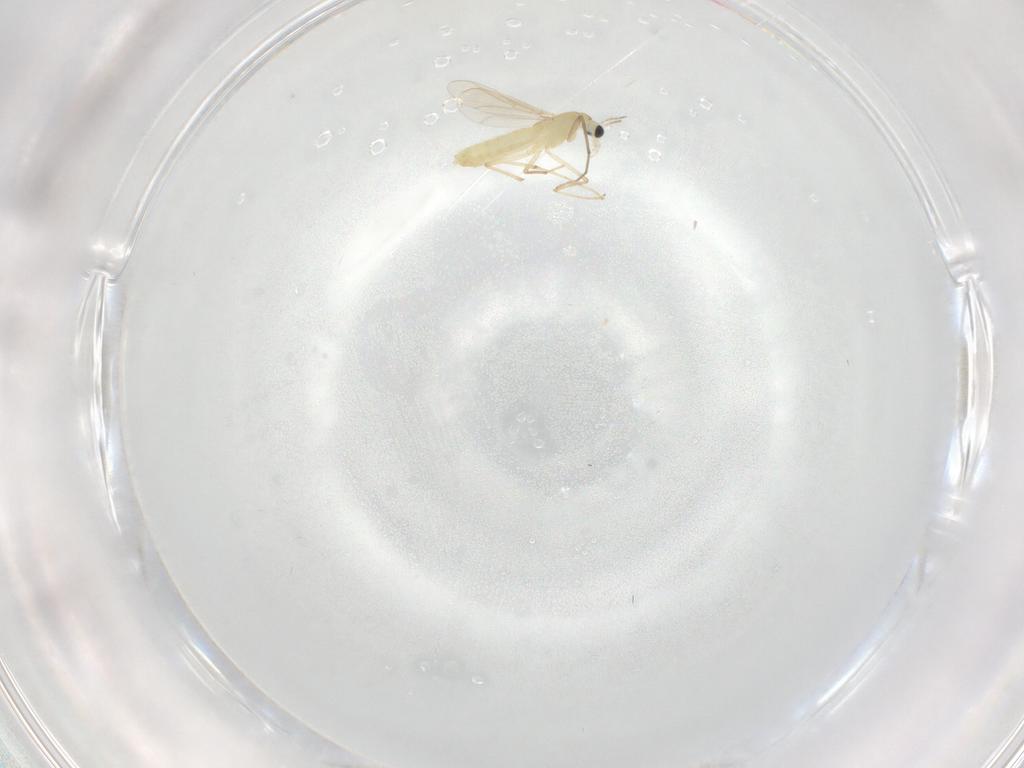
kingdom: Animalia
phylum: Arthropoda
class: Insecta
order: Diptera
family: Chironomidae
